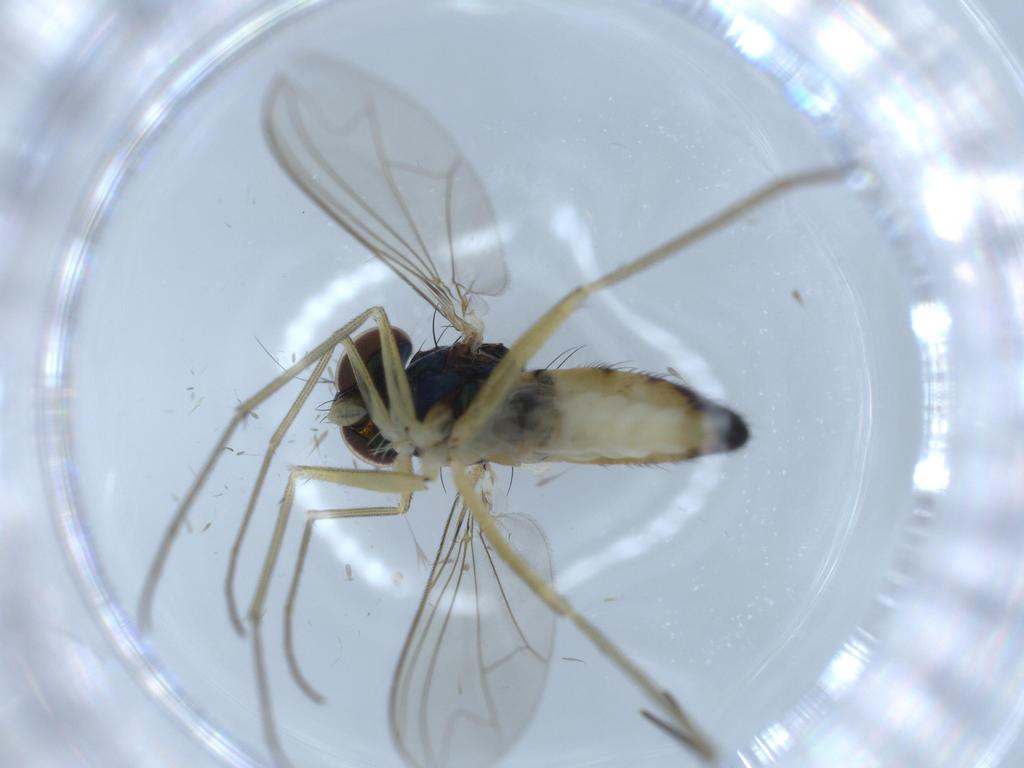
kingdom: Animalia
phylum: Arthropoda
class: Insecta
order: Diptera
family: Dolichopodidae
